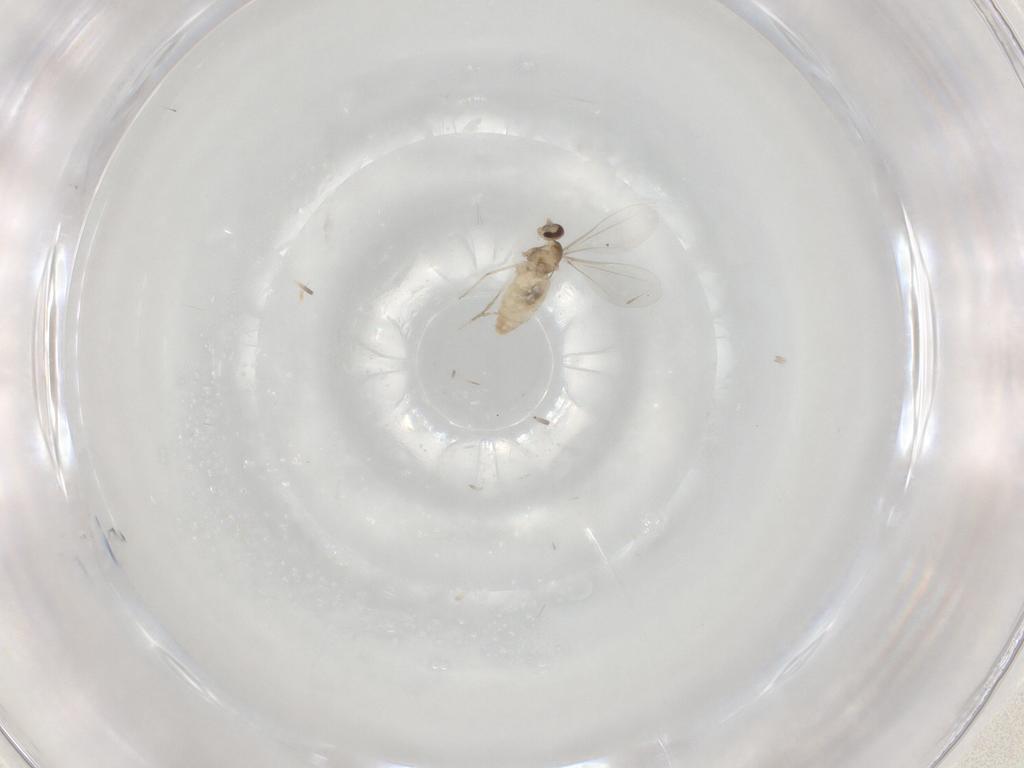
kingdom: Animalia
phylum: Arthropoda
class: Insecta
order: Diptera
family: Cecidomyiidae
